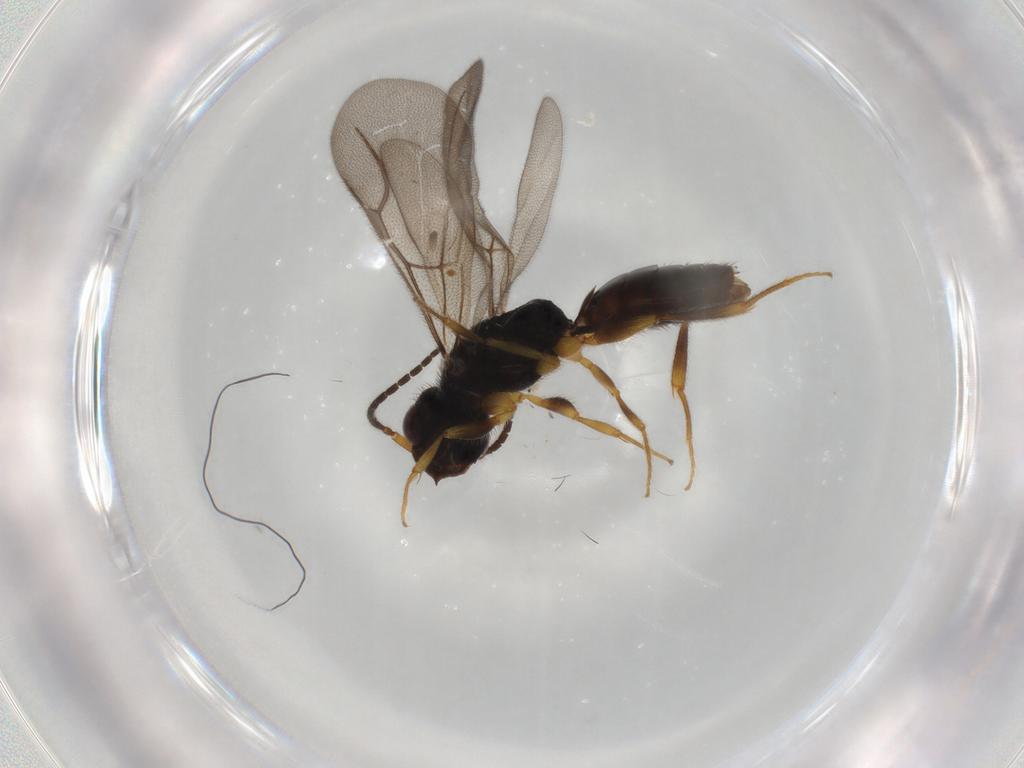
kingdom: Animalia
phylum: Arthropoda
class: Insecta
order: Hymenoptera
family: Bethylidae
